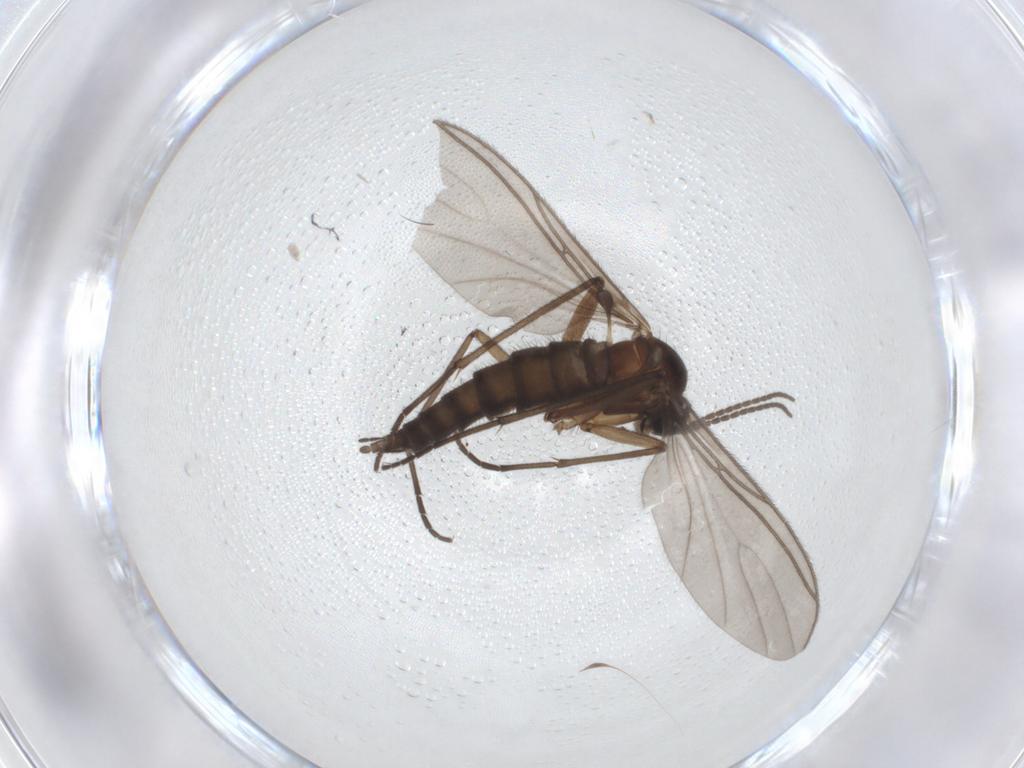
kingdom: Animalia
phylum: Arthropoda
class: Insecta
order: Diptera
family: Sciaridae
